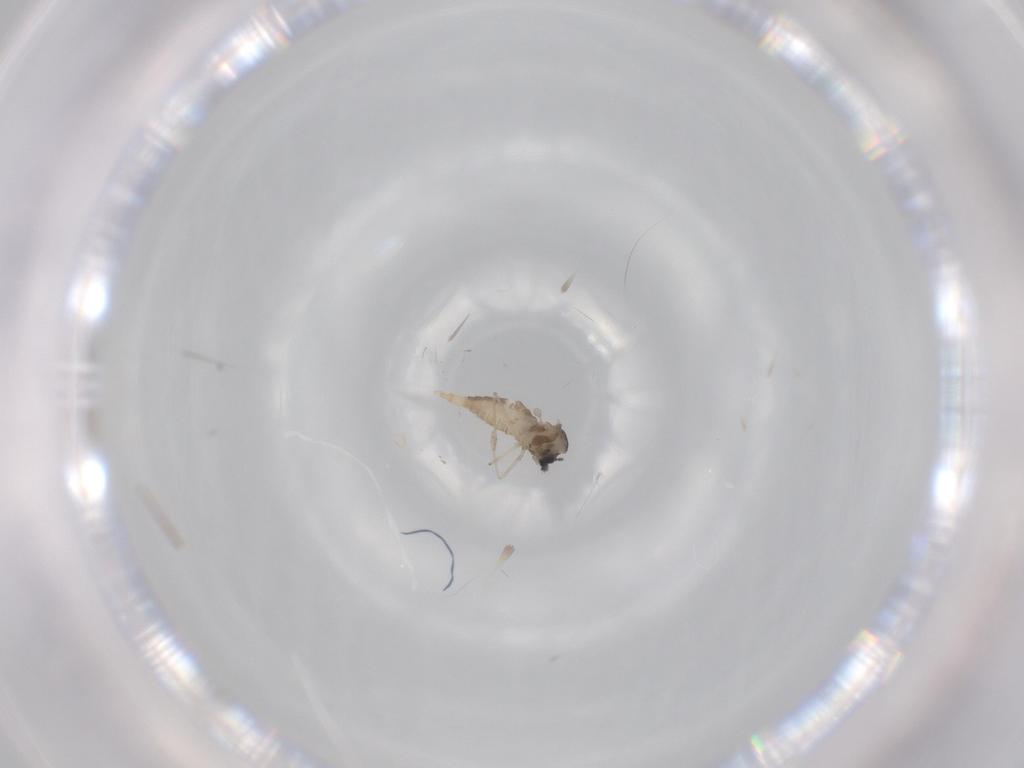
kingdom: Animalia
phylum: Arthropoda
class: Insecta
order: Diptera
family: Cecidomyiidae
